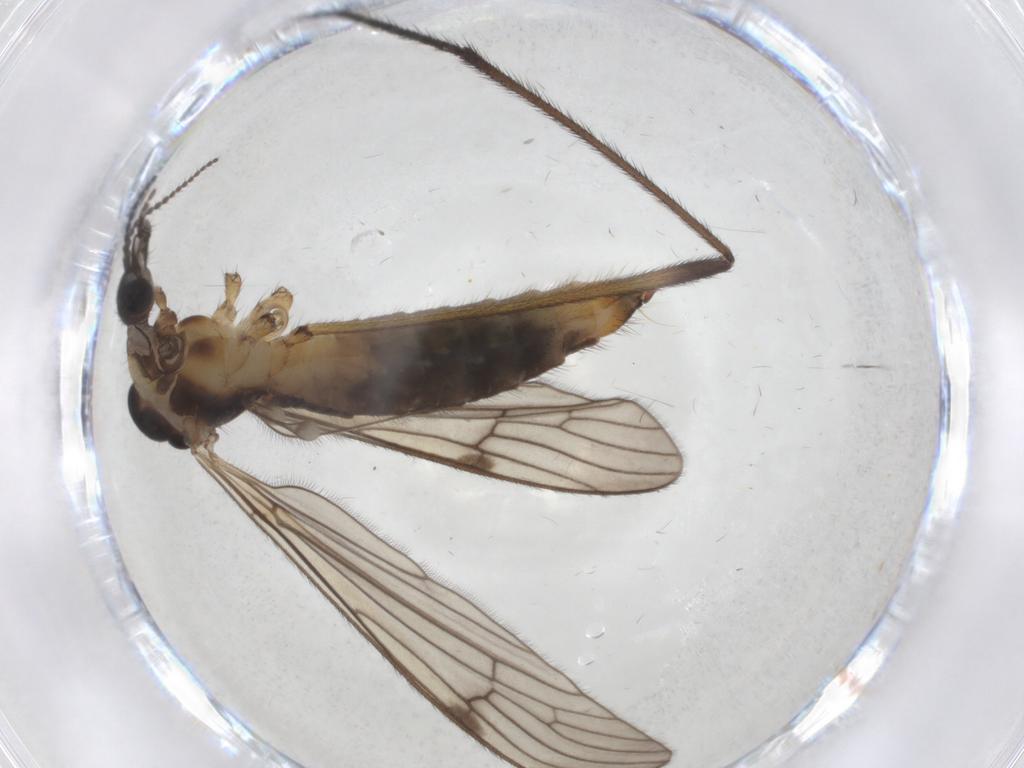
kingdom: Animalia
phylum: Arthropoda
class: Insecta
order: Diptera
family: Limoniidae
